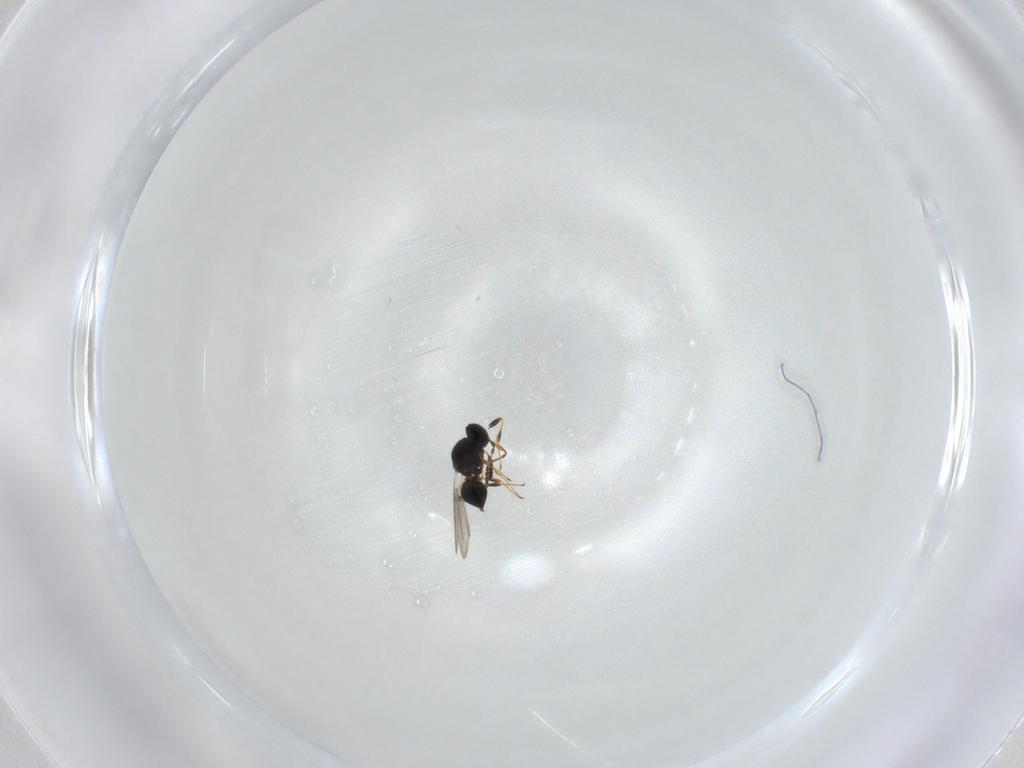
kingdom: Animalia
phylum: Arthropoda
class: Insecta
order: Hymenoptera
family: Platygastridae
